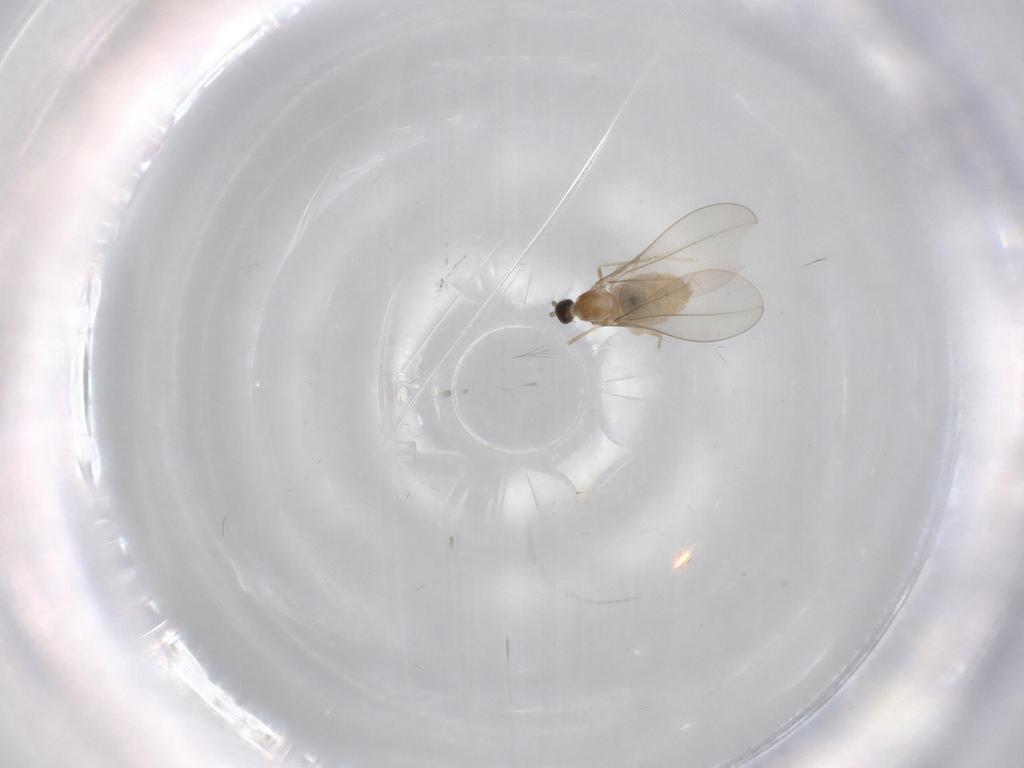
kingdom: Animalia
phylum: Arthropoda
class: Insecta
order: Diptera
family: Cecidomyiidae
